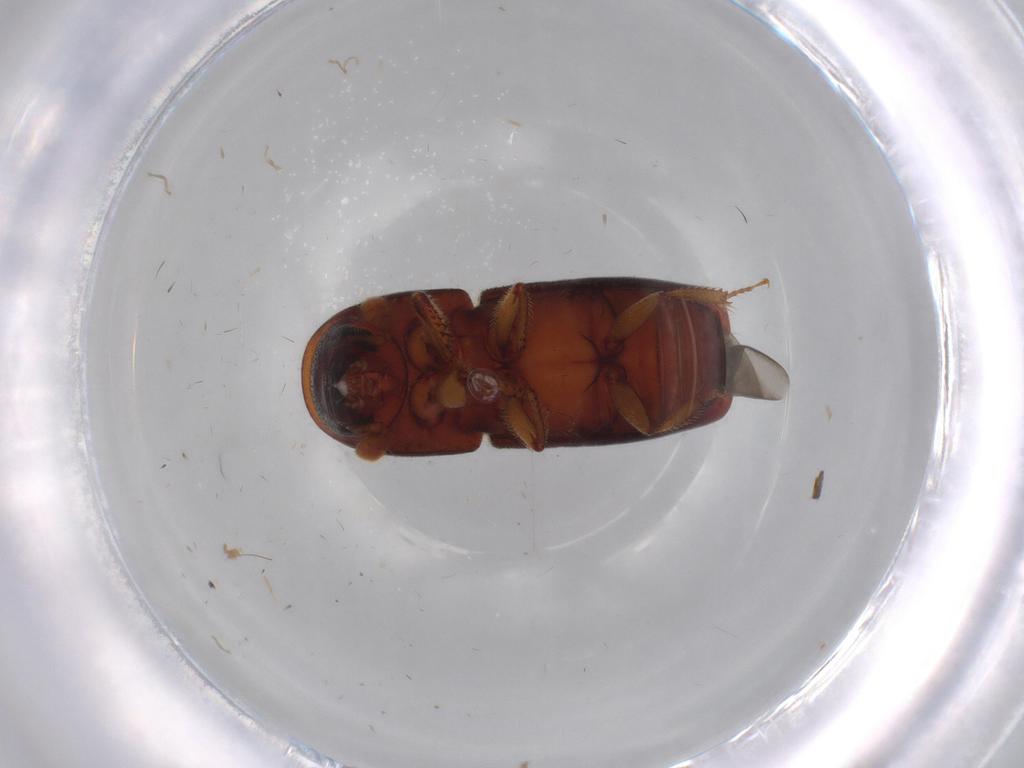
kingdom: Animalia
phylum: Arthropoda
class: Insecta
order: Coleoptera
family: Curculionidae
